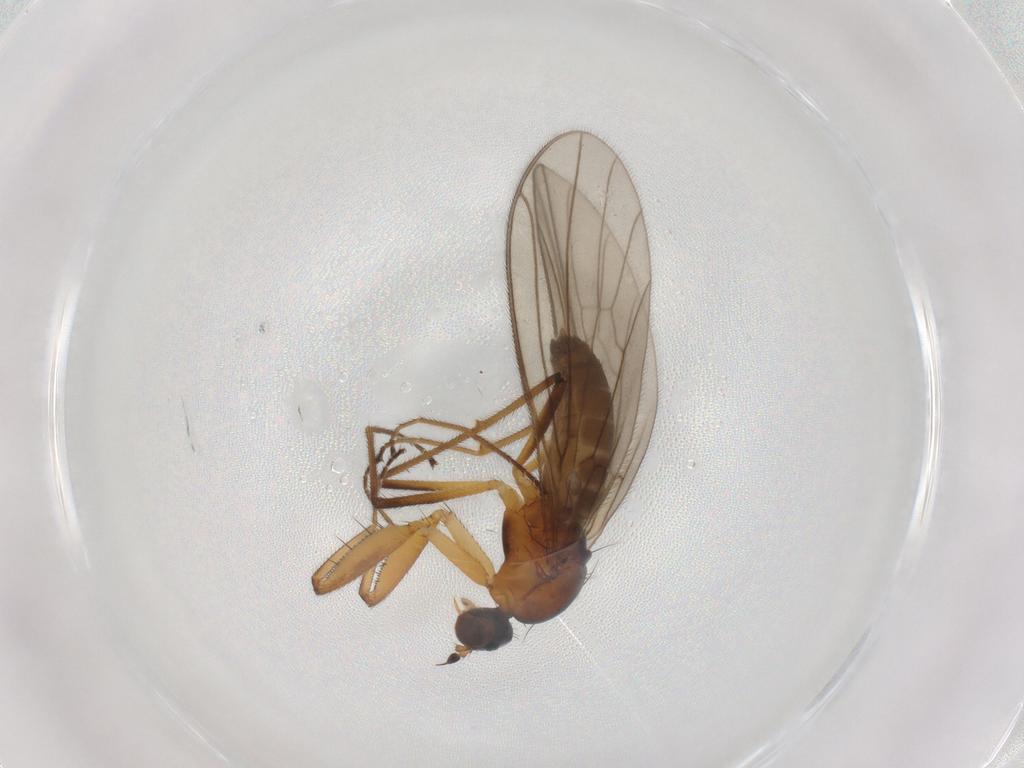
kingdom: Animalia
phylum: Arthropoda
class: Insecta
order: Diptera
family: Empididae
